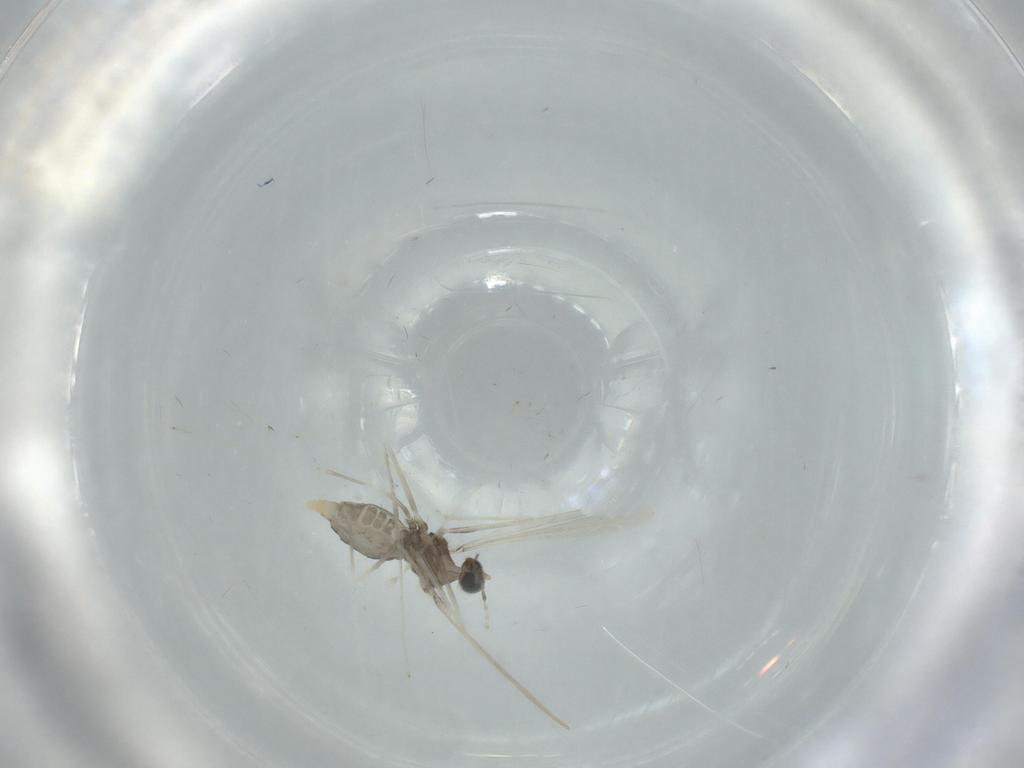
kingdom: Animalia
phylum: Arthropoda
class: Insecta
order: Diptera
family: Cecidomyiidae
